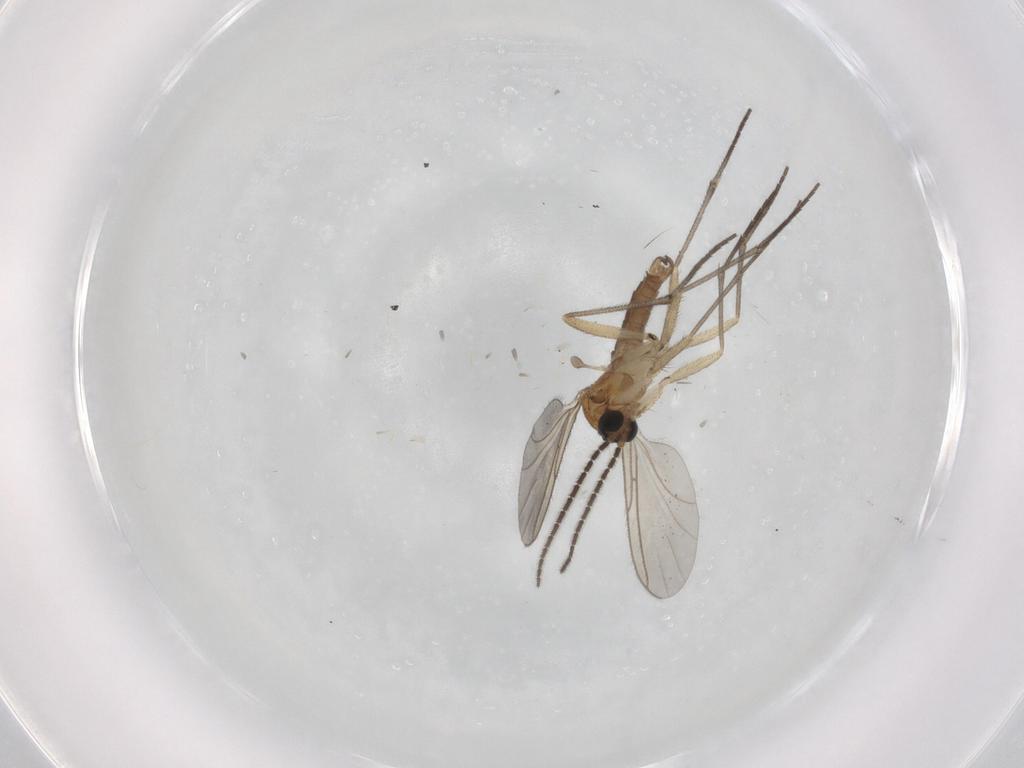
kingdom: Animalia
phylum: Arthropoda
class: Insecta
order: Diptera
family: Sciaridae
